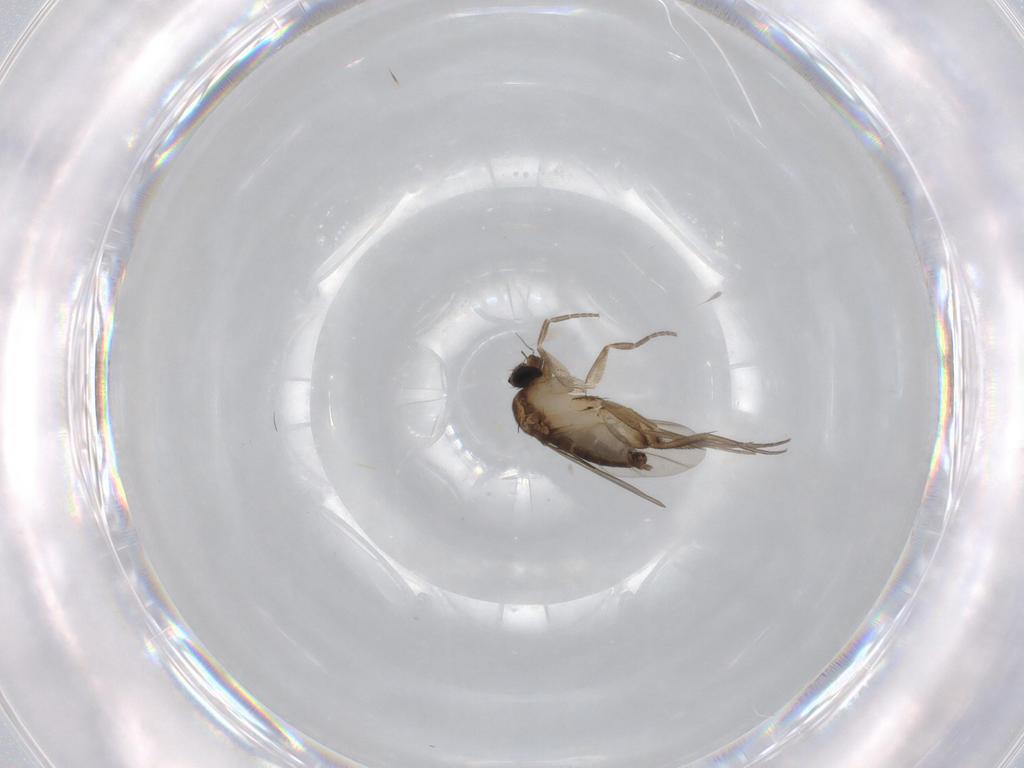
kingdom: Animalia
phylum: Arthropoda
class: Insecta
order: Diptera
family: Phoridae
